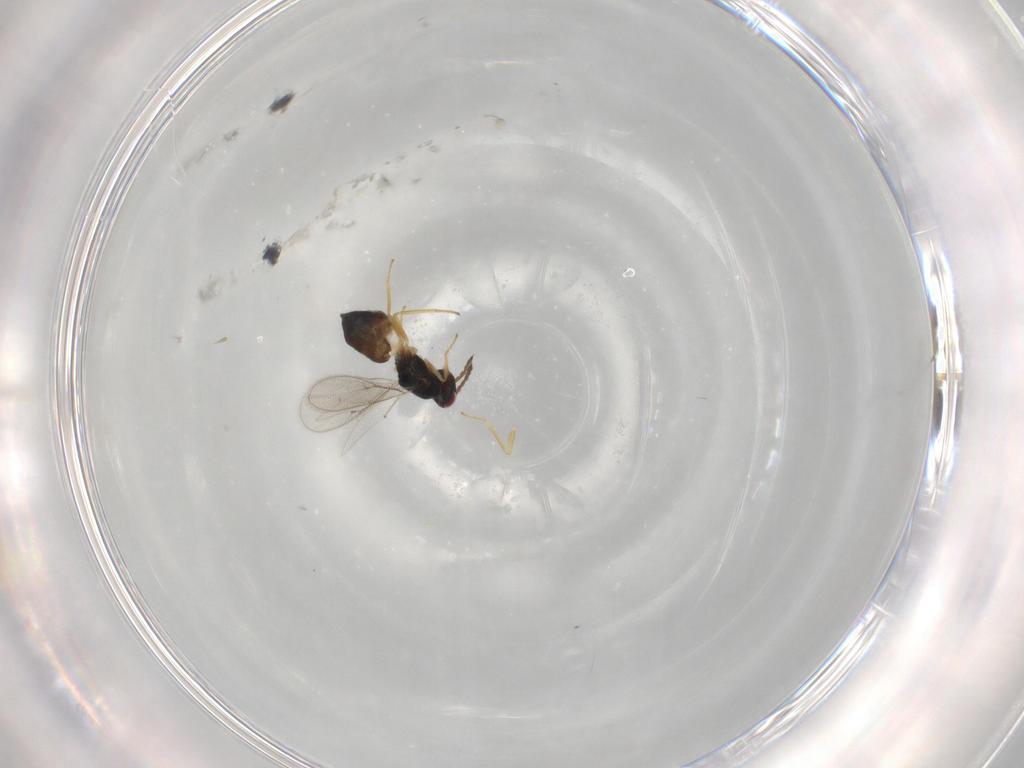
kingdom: Animalia
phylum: Arthropoda
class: Insecta
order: Hymenoptera
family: Eulophidae
